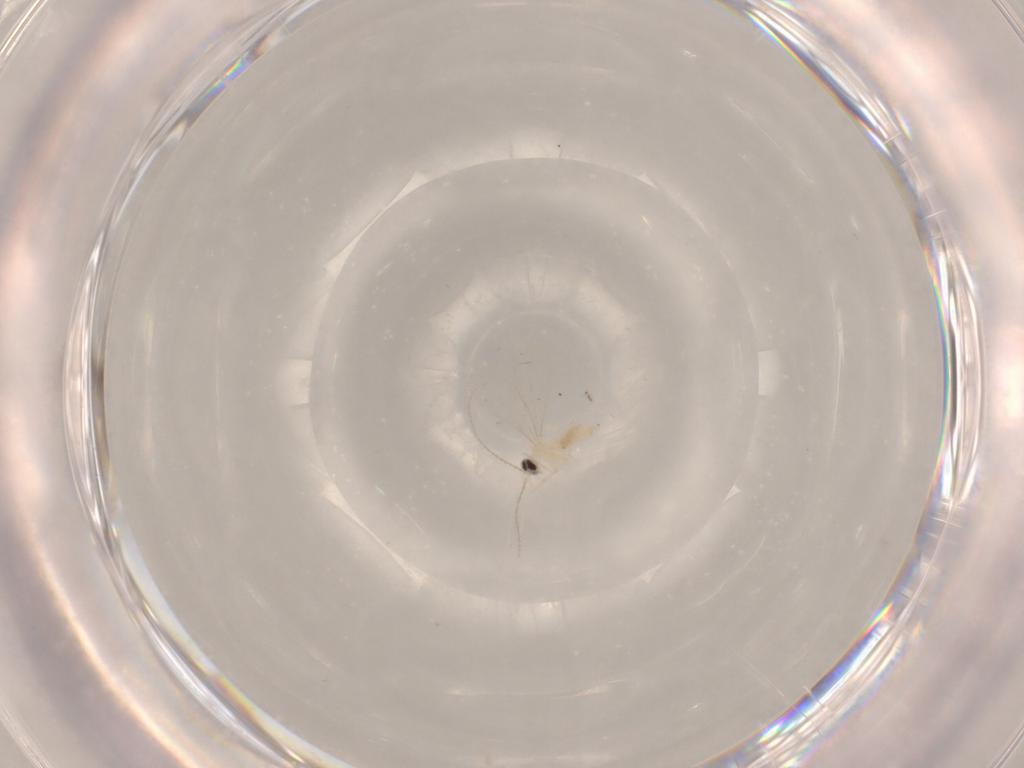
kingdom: Animalia
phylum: Arthropoda
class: Insecta
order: Diptera
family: Cecidomyiidae
